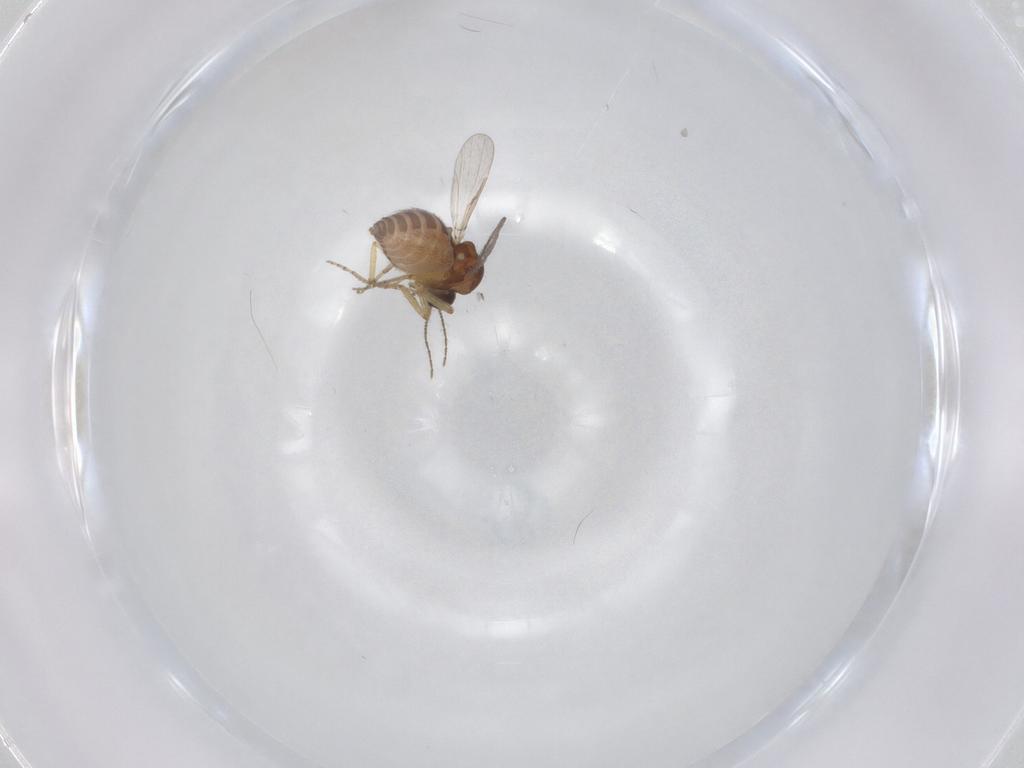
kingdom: Animalia
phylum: Arthropoda
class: Insecta
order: Diptera
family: Ceratopogonidae
